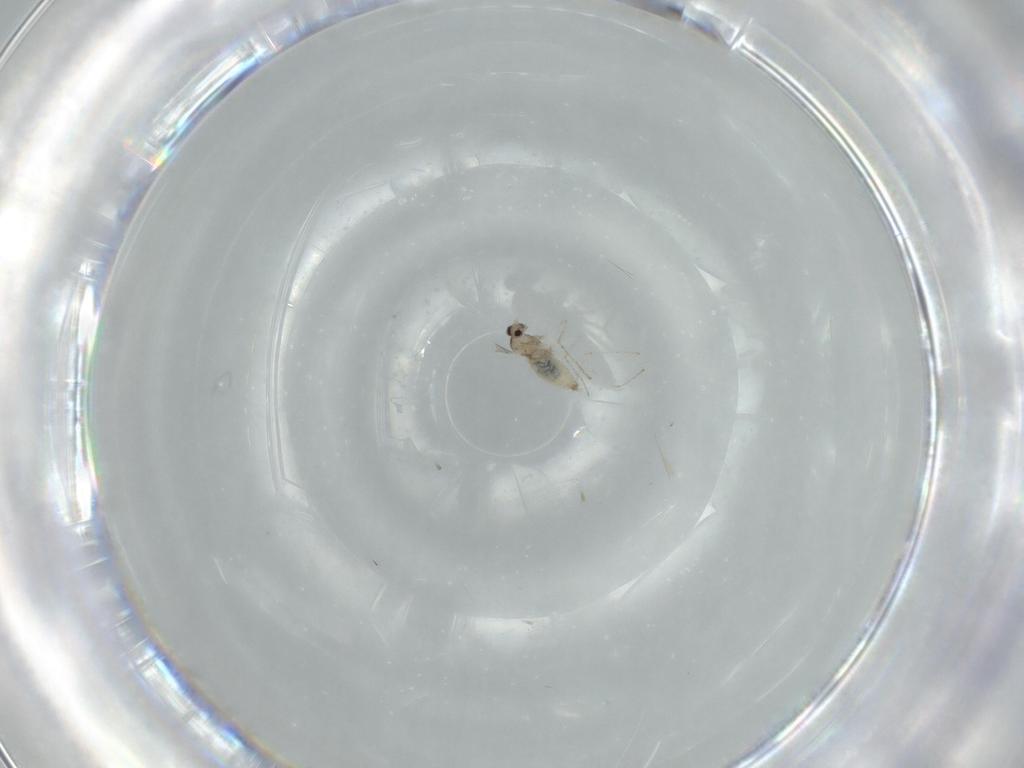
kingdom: Animalia
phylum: Arthropoda
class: Insecta
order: Diptera
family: Cecidomyiidae
